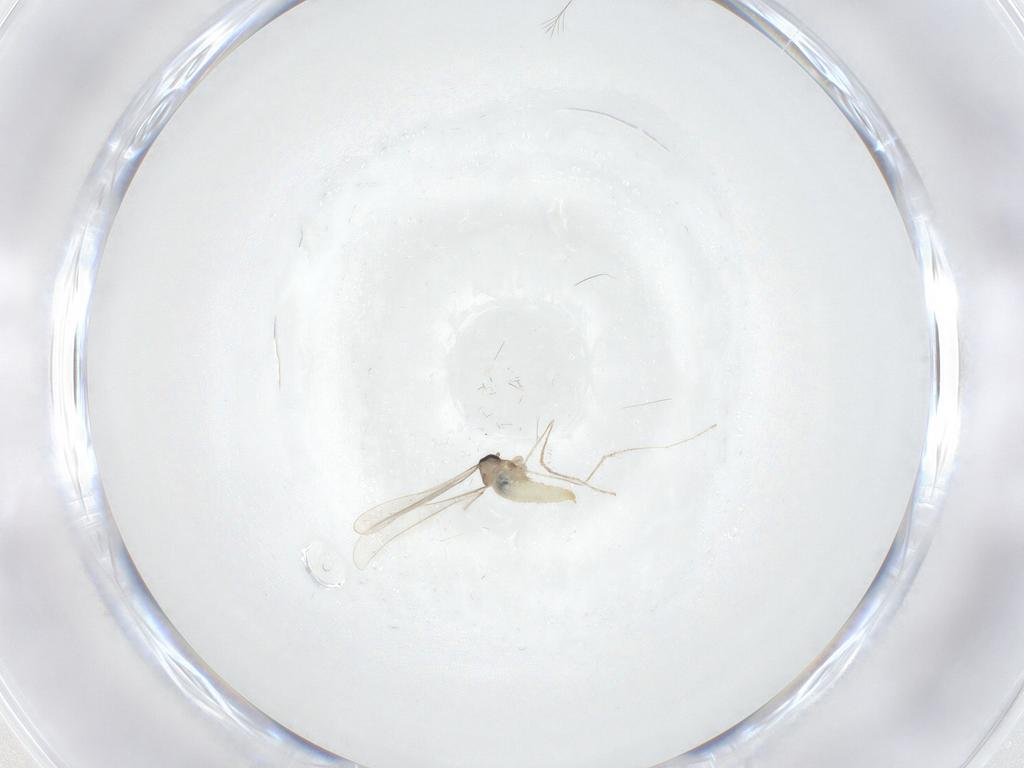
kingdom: Animalia
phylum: Arthropoda
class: Insecta
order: Diptera
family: Cecidomyiidae
